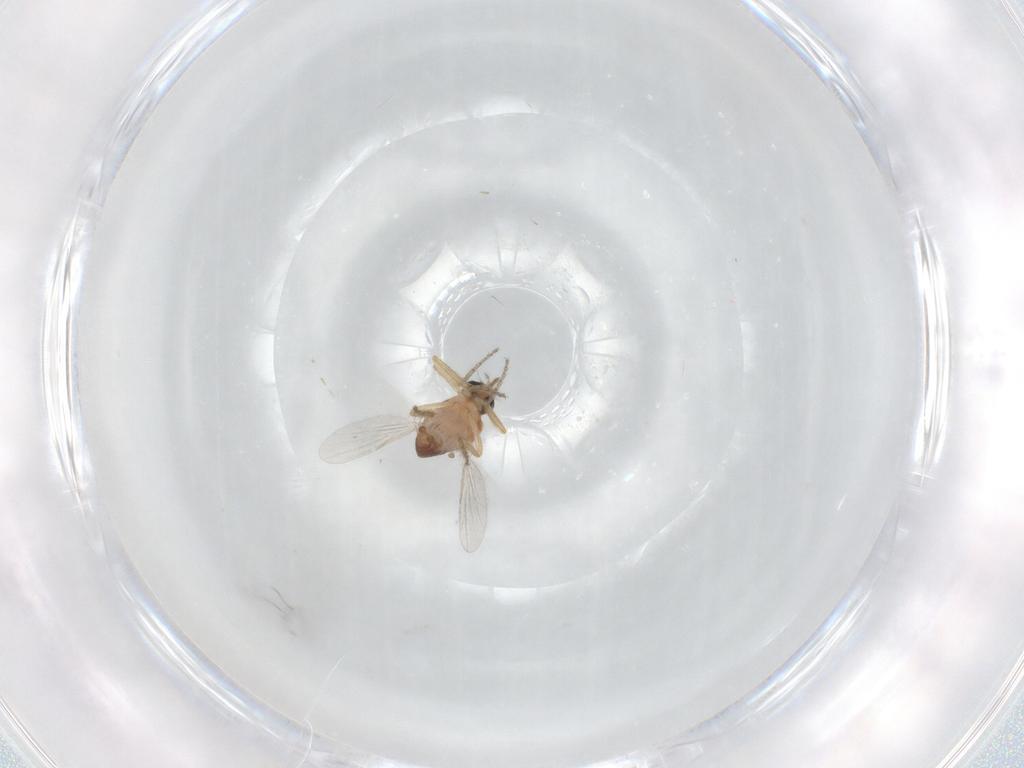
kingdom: Animalia
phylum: Arthropoda
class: Insecta
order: Diptera
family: Ceratopogonidae
